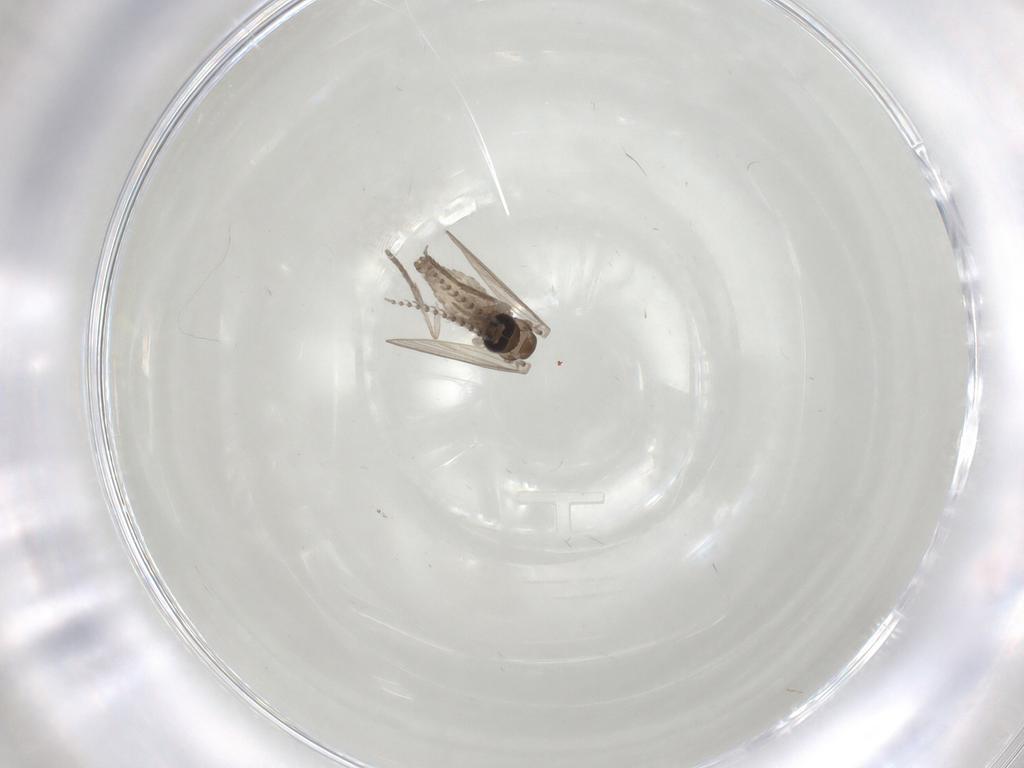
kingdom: Animalia
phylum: Arthropoda
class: Insecta
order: Diptera
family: Psychodidae
